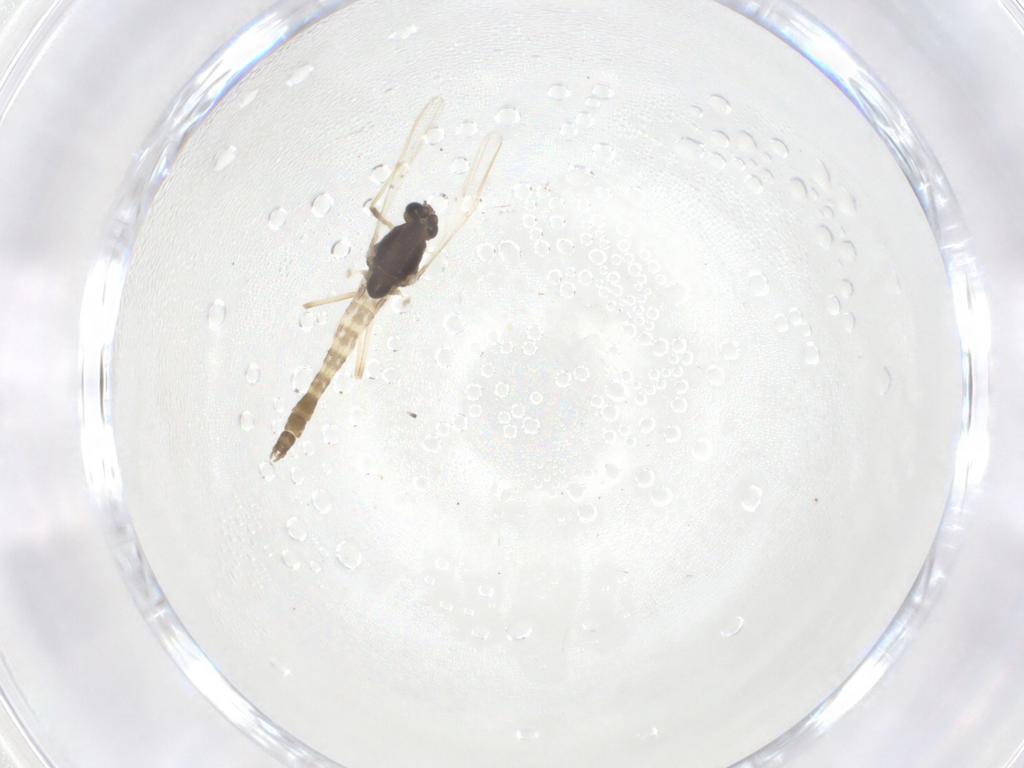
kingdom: Animalia
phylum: Arthropoda
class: Insecta
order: Diptera
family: Chironomidae
